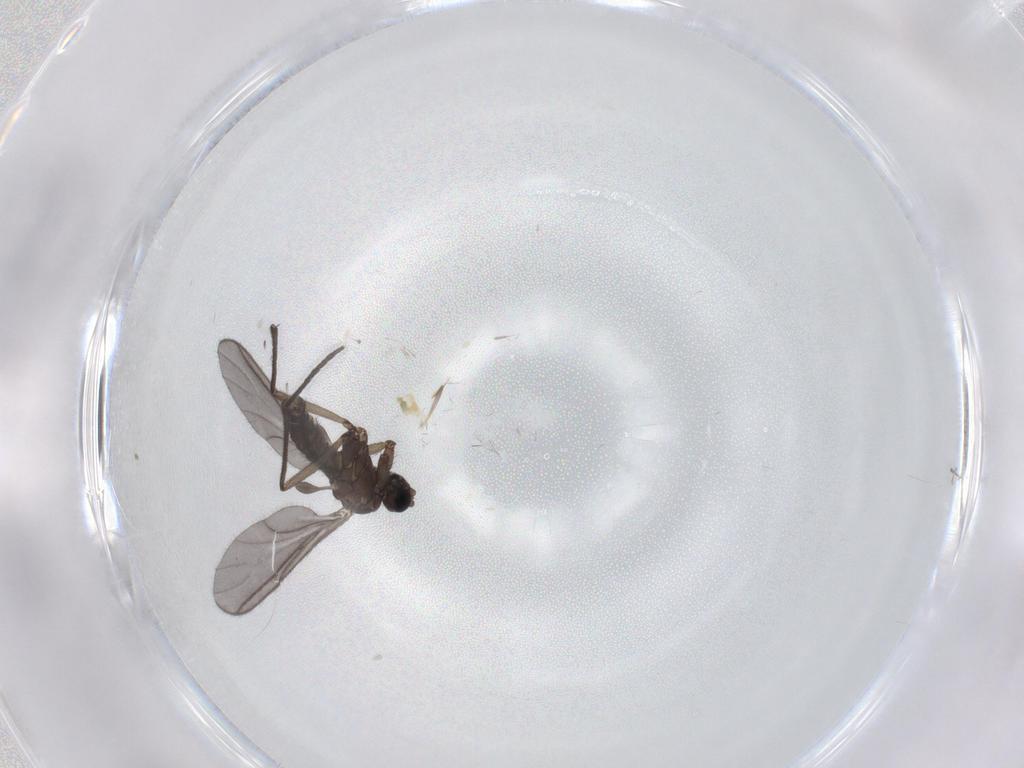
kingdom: Animalia
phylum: Arthropoda
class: Insecta
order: Diptera
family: Sciaridae
